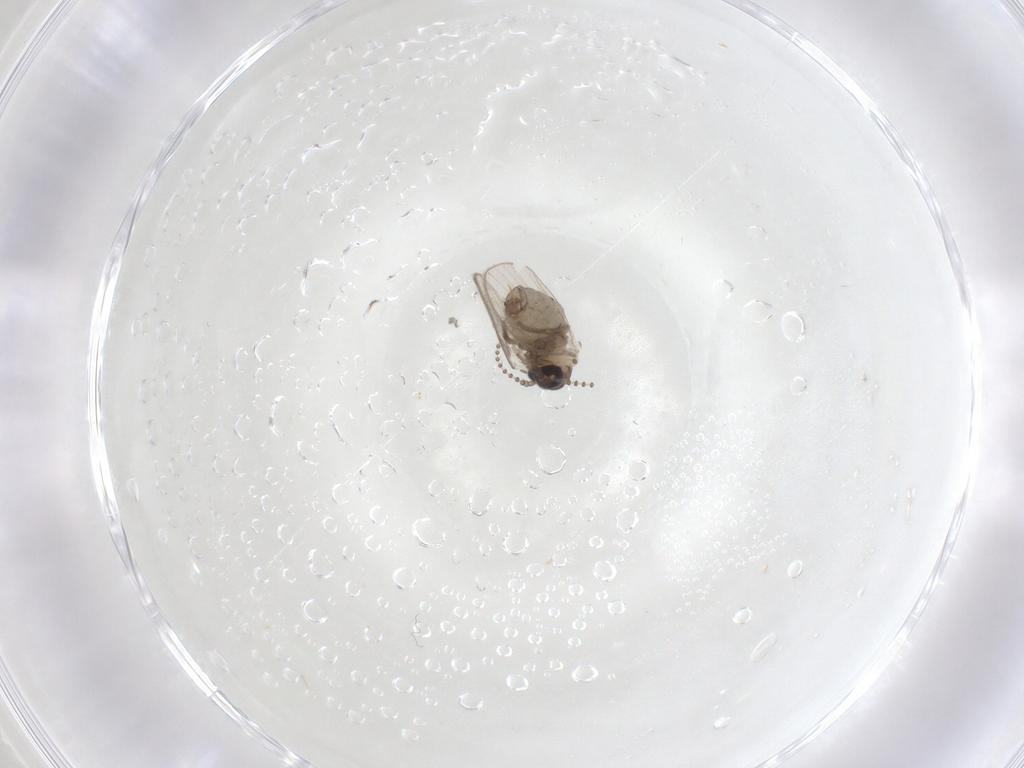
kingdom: Animalia
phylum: Arthropoda
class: Insecta
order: Diptera
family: Psychodidae
